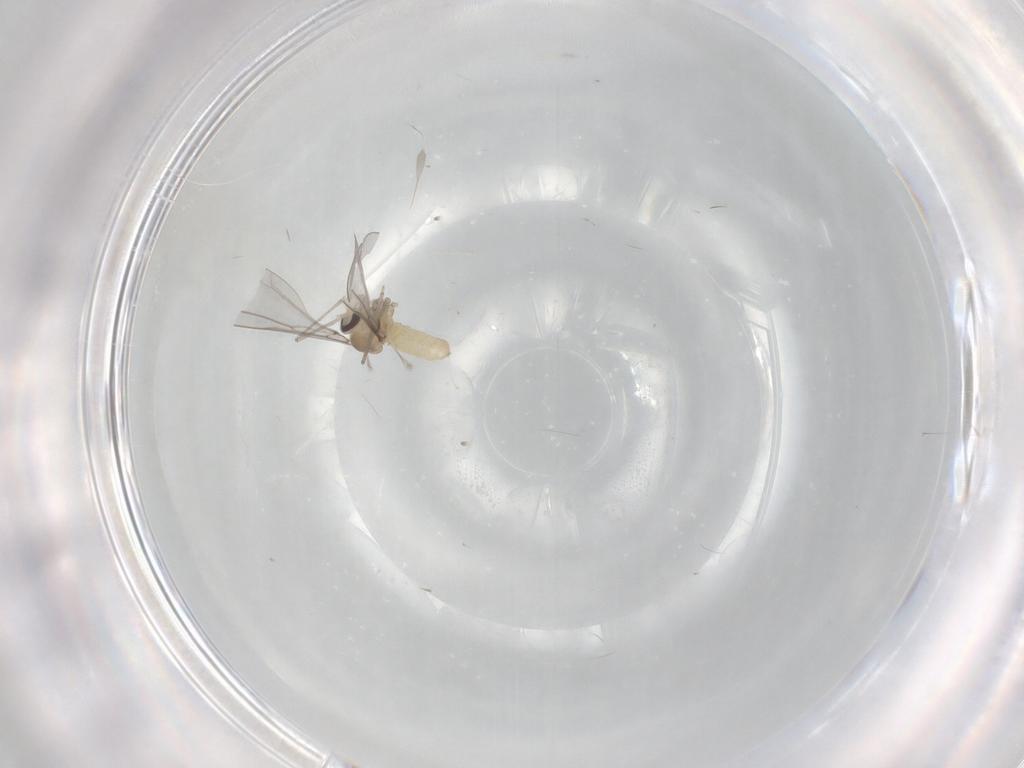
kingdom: Animalia
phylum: Arthropoda
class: Insecta
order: Diptera
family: Cecidomyiidae
